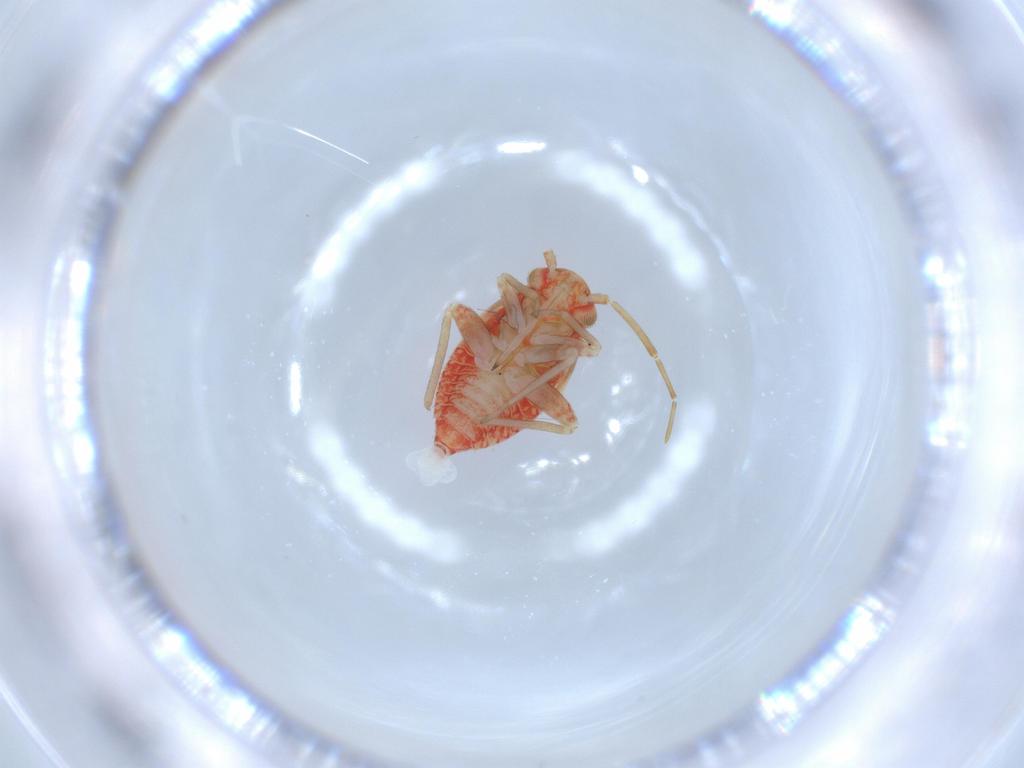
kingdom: Animalia
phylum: Arthropoda
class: Insecta
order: Hemiptera
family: Miridae
